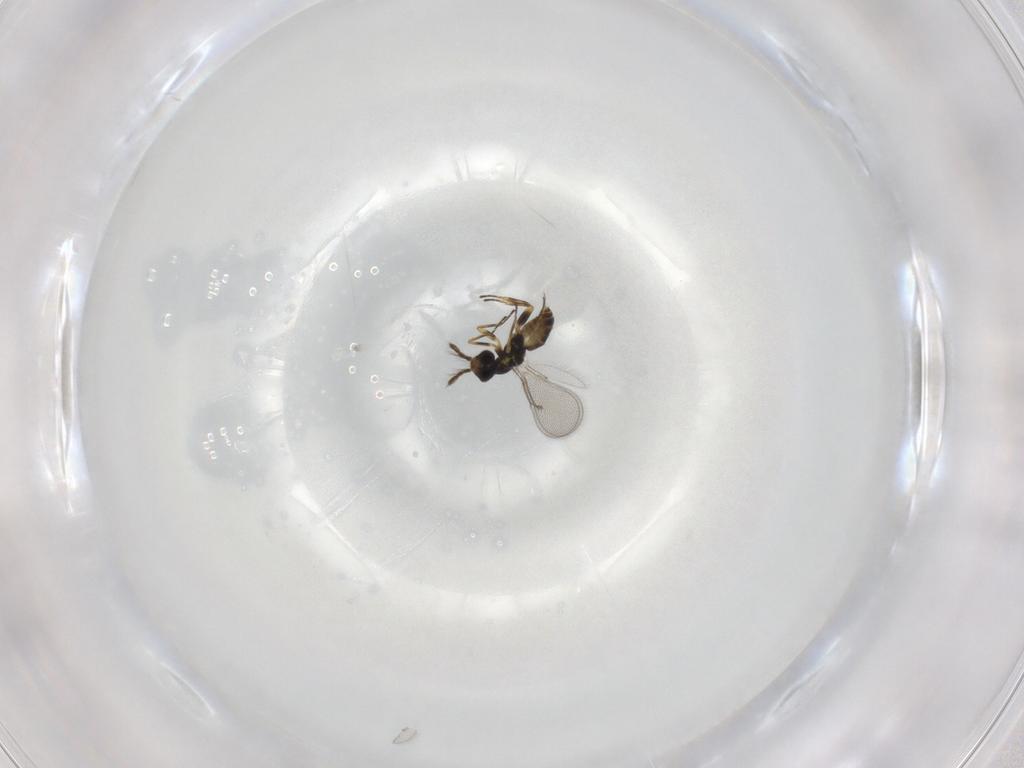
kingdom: Animalia
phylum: Arthropoda
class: Insecta
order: Hymenoptera
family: Eulophidae
